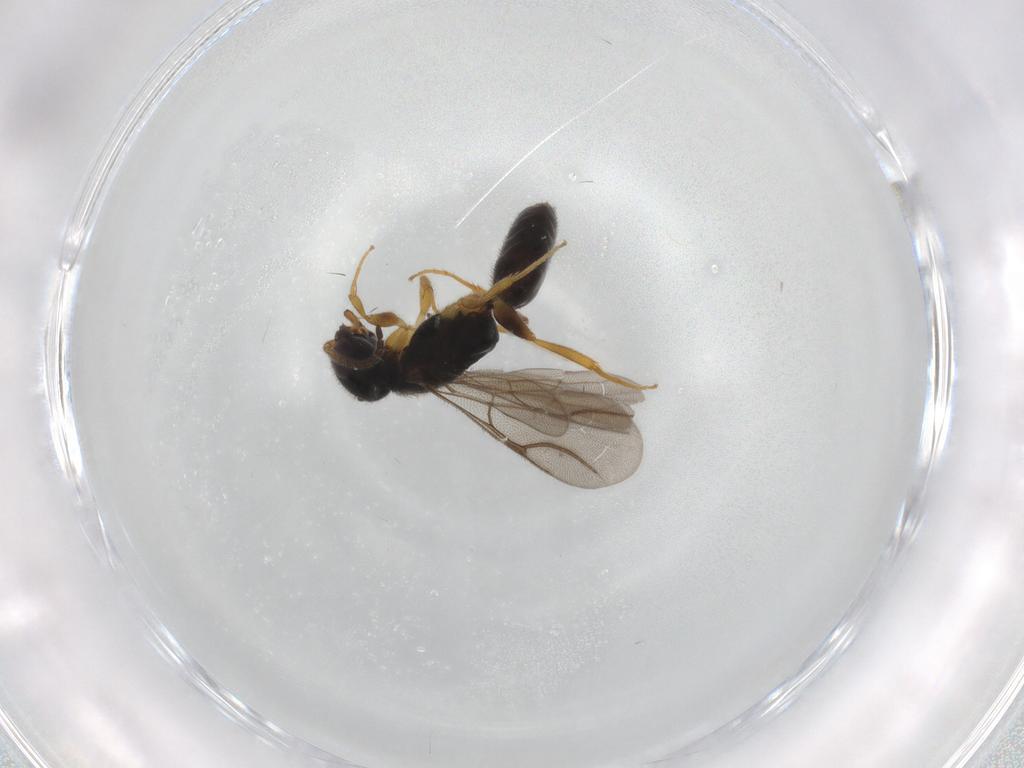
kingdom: Animalia
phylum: Arthropoda
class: Insecta
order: Hymenoptera
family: Bethylidae
